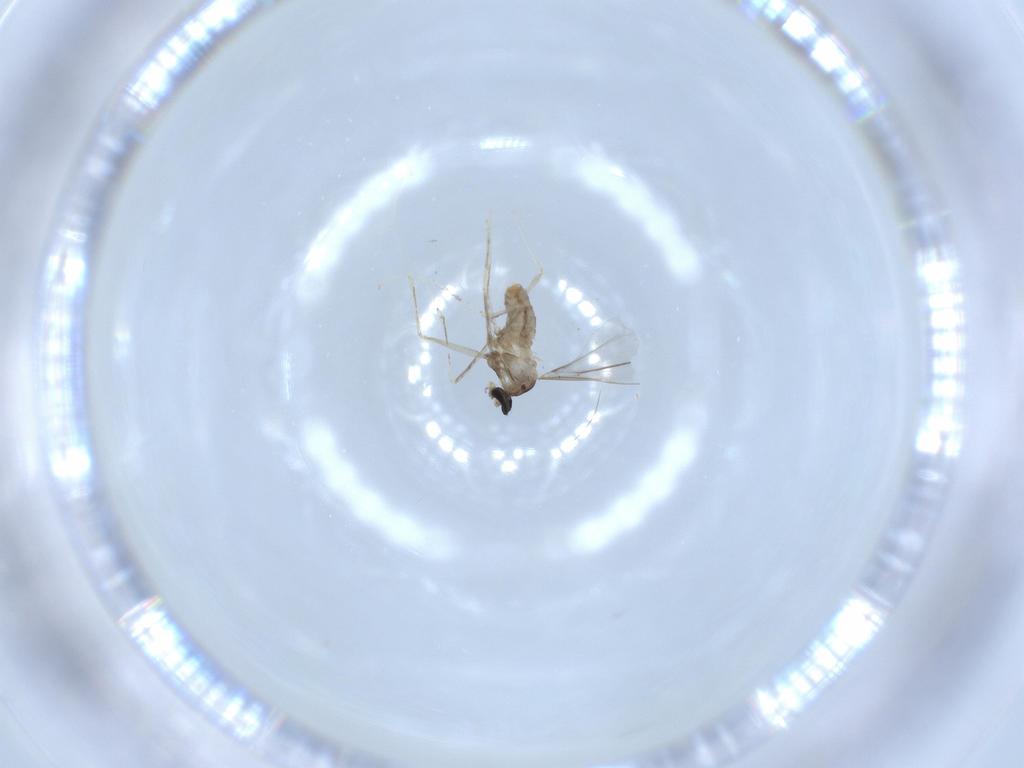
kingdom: Animalia
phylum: Arthropoda
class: Insecta
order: Diptera
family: Cecidomyiidae
